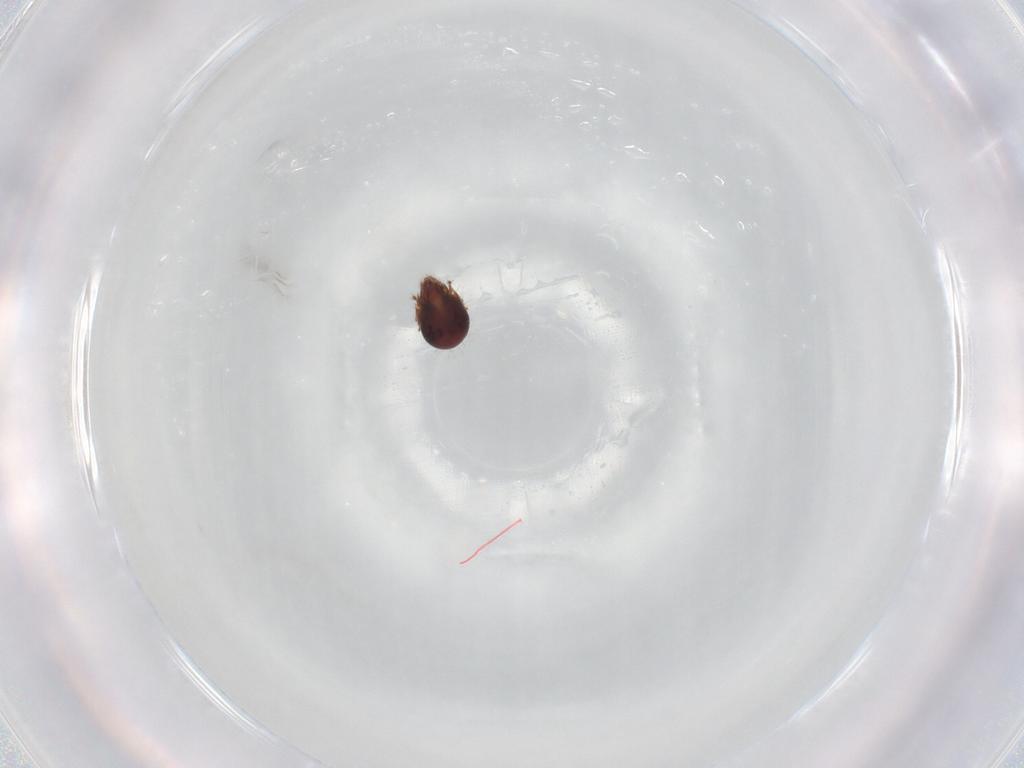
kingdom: Animalia
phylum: Arthropoda
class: Arachnida
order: Sarcoptiformes
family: Humerobatidae
